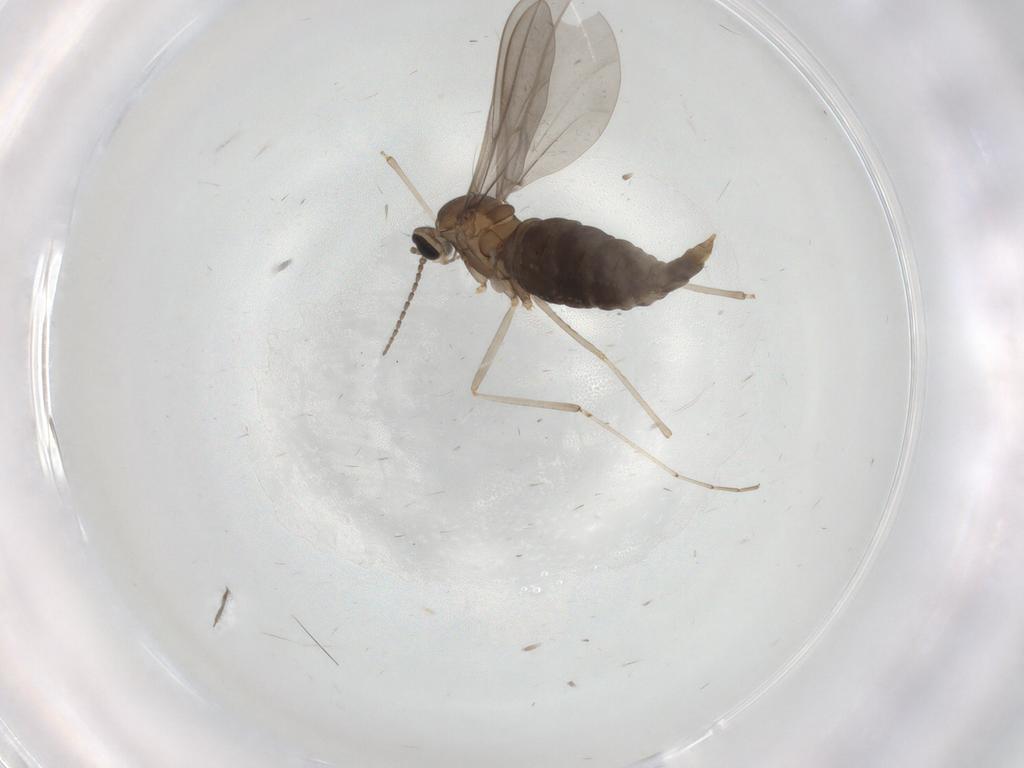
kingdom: Animalia
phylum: Arthropoda
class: Insecta
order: Diptera
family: Cecidomyiidae
